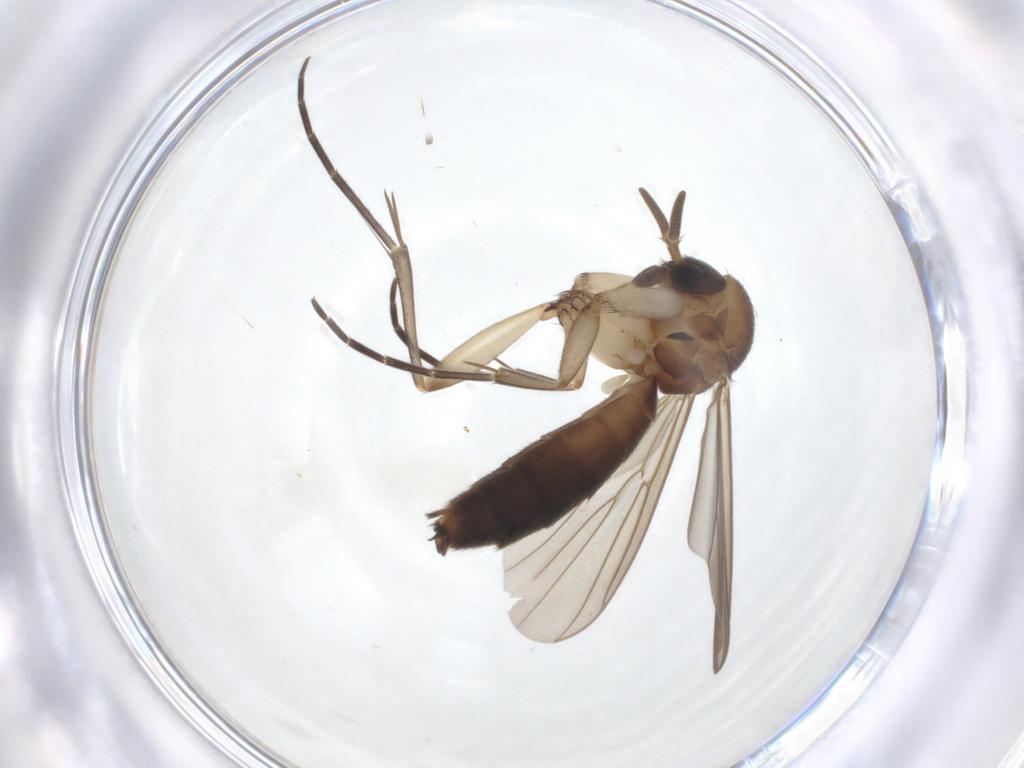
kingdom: Animalia
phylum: Arthropoda
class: Insecta
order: Diptera
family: Mycetophilidae
